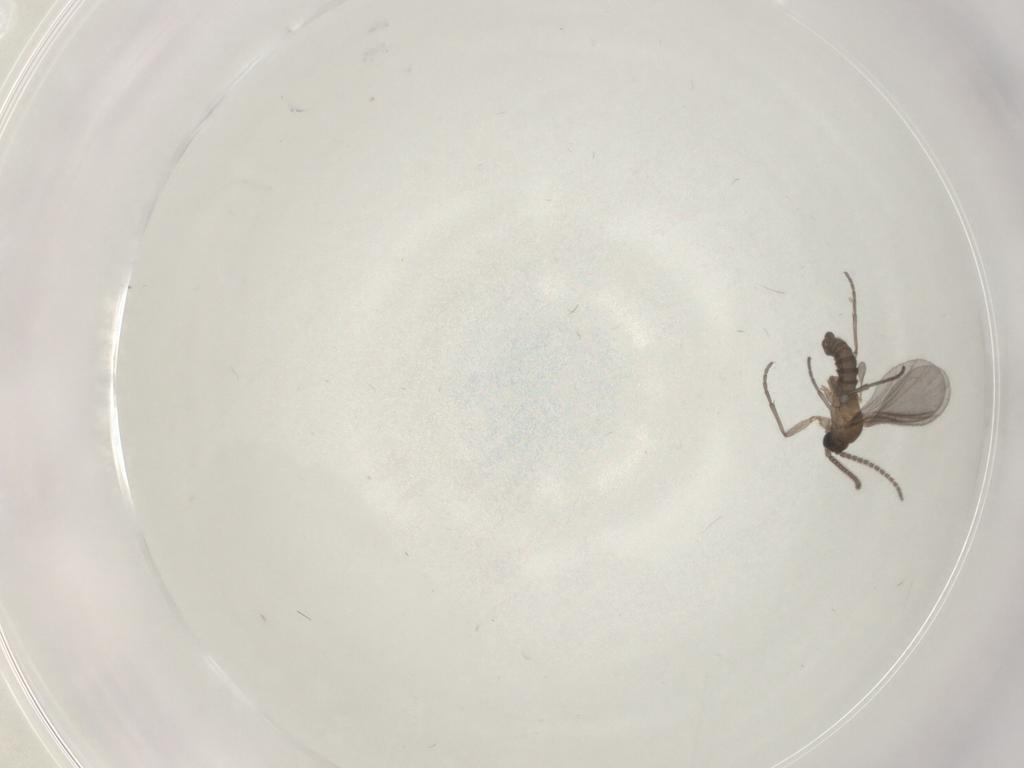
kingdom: Animalia
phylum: Arthropoda
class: Insecta
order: Diptera
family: Sciaridae
